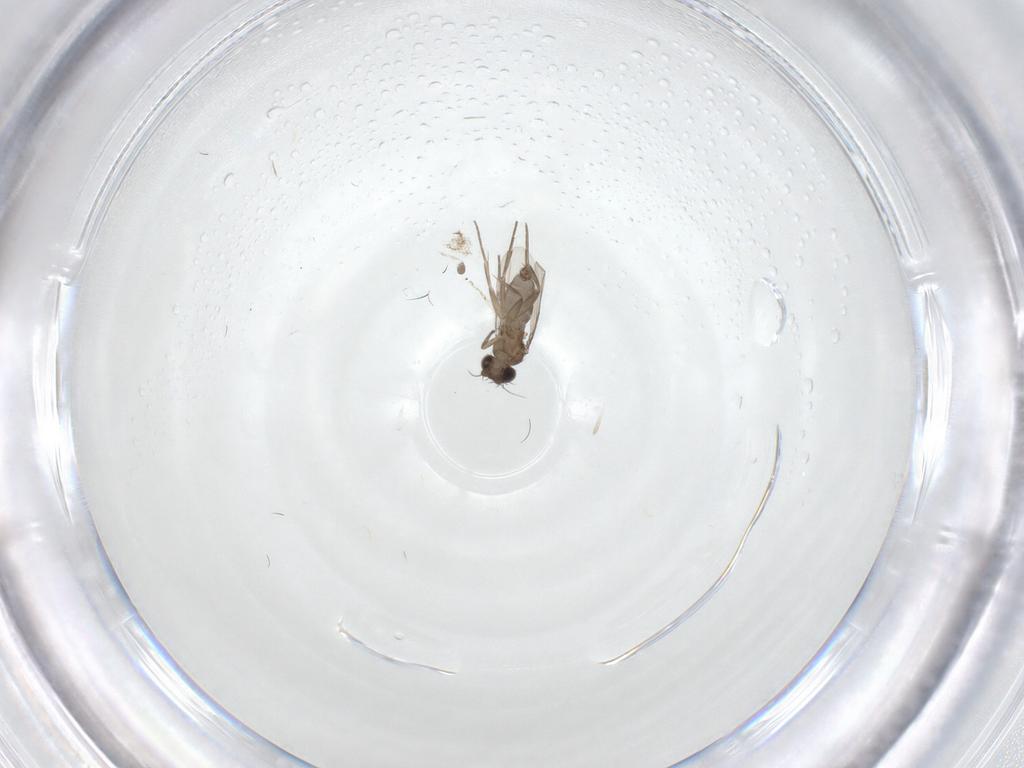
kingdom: Animalia
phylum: Arthropoda
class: Insecta
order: Diptera
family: Phoridae
